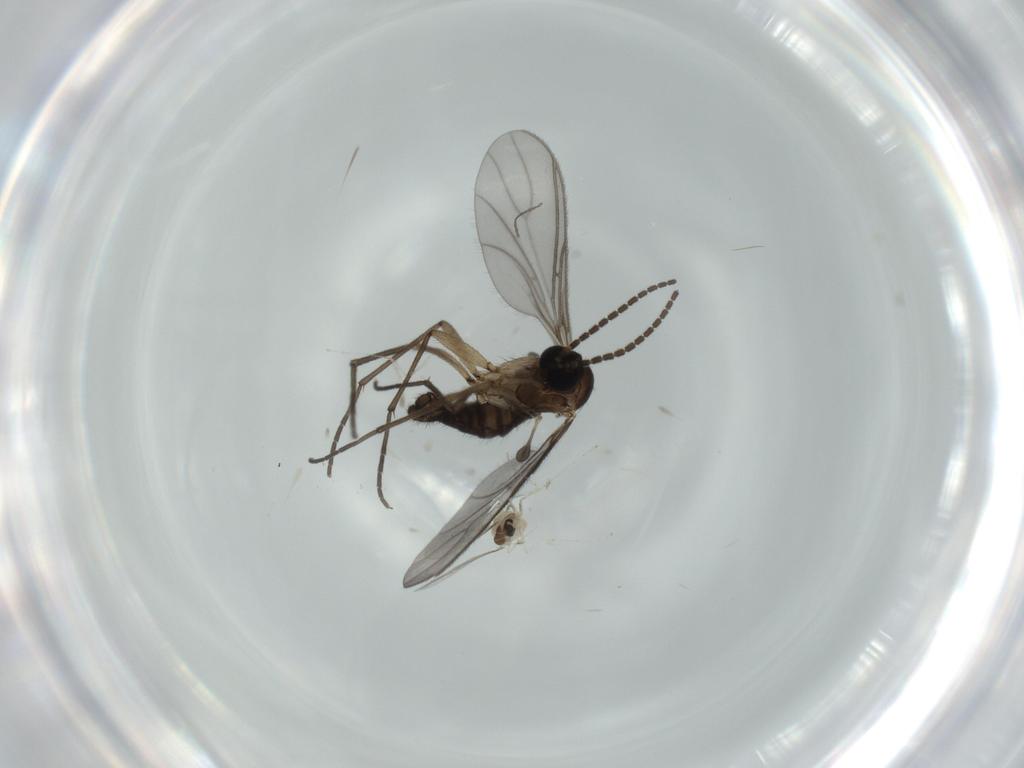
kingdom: Animalia
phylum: Arthropoda
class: Insecta
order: Diptera
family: Cecidomyiidae
